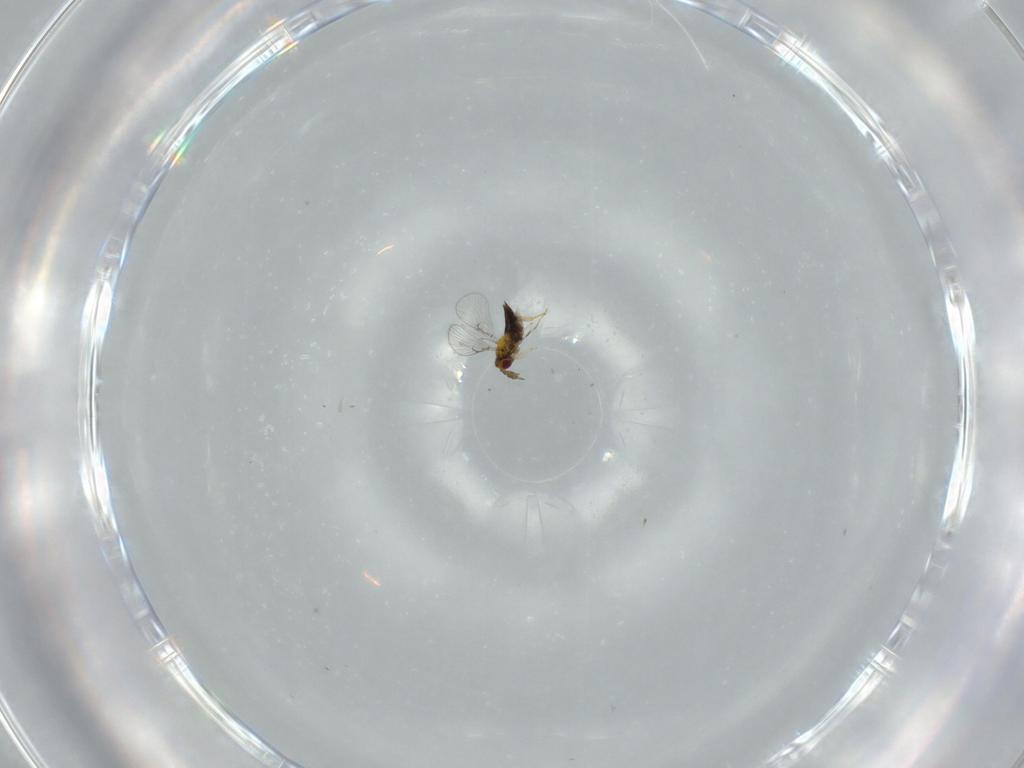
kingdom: Animalia
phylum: Arthropoda
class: Insecta
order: Hymenoptera
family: Trichogrammatidae
